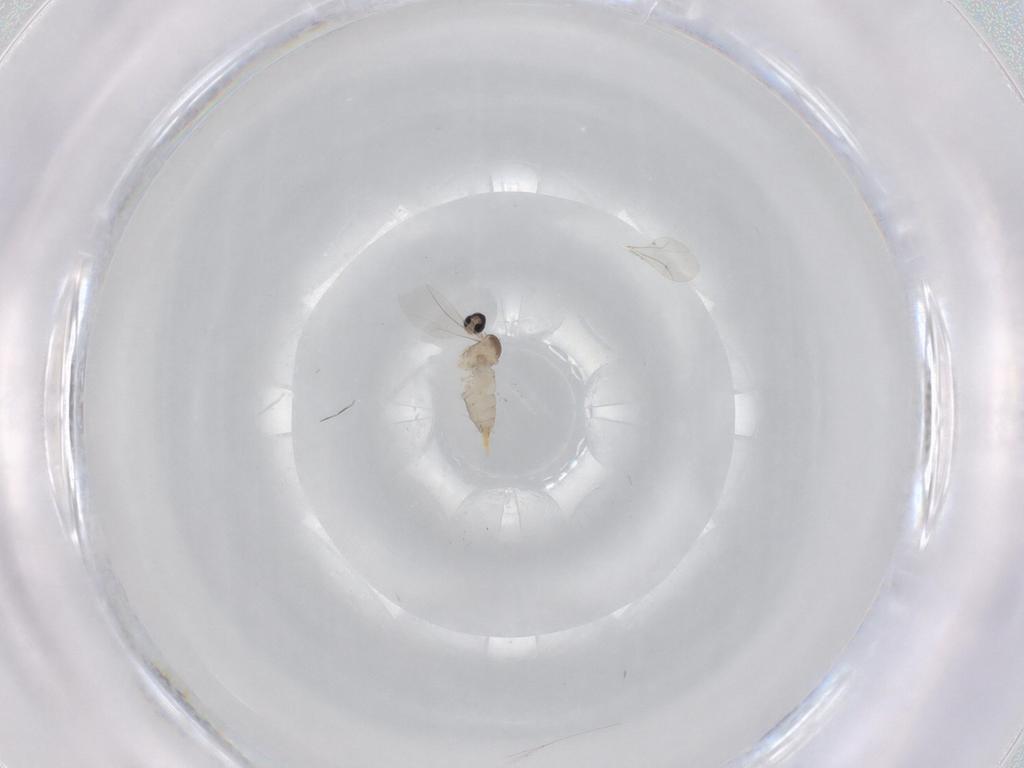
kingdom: Animalia
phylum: Arthropoda
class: Insecta
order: Diptera
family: Cecidomyiidae
